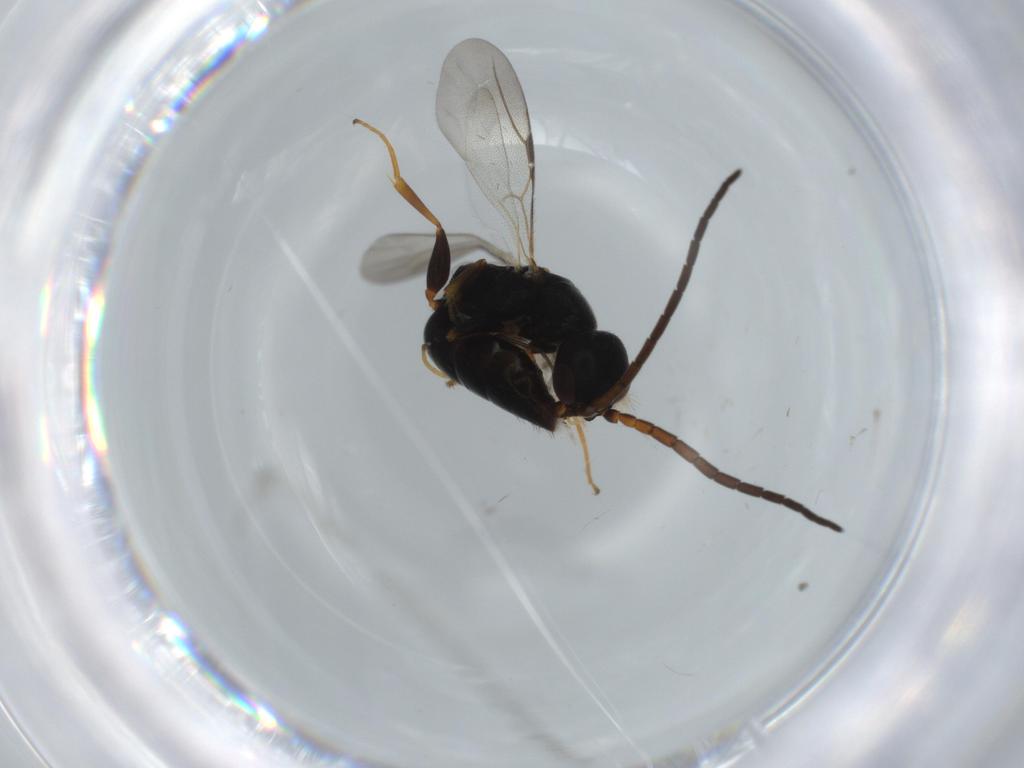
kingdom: Animalia
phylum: Arthropoda
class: Insecta
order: Hymenoptera
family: Bethylidae
